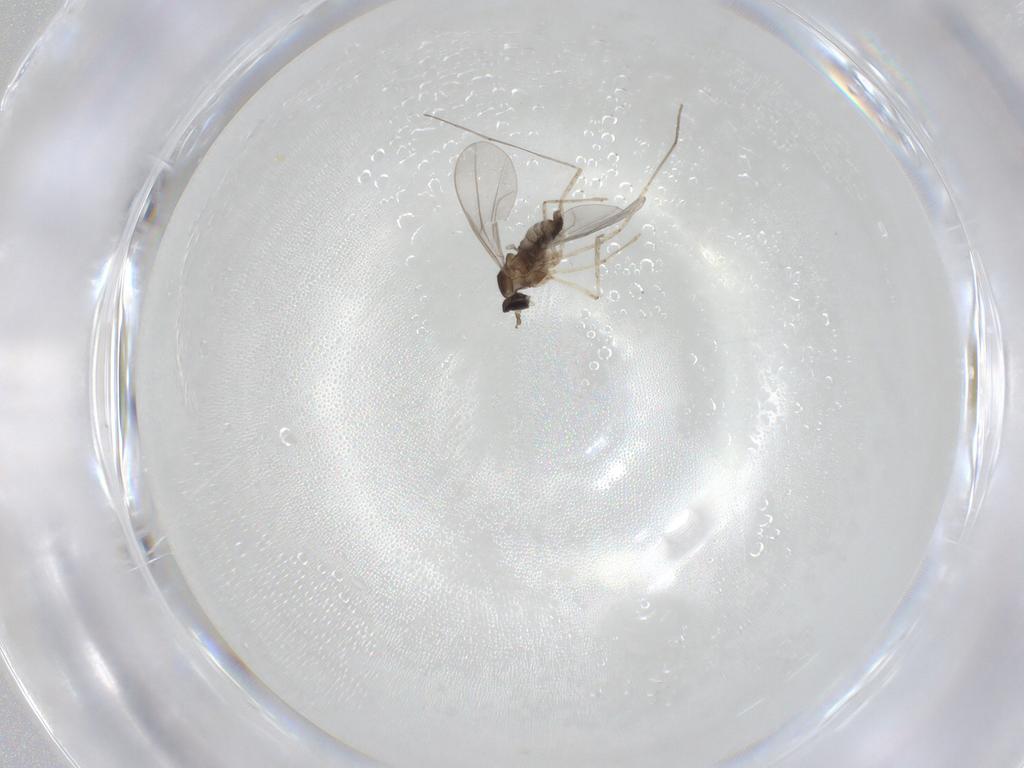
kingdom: Animalia
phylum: Arthropoda
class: Insecta
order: Diptera
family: Cecidomyiidae
